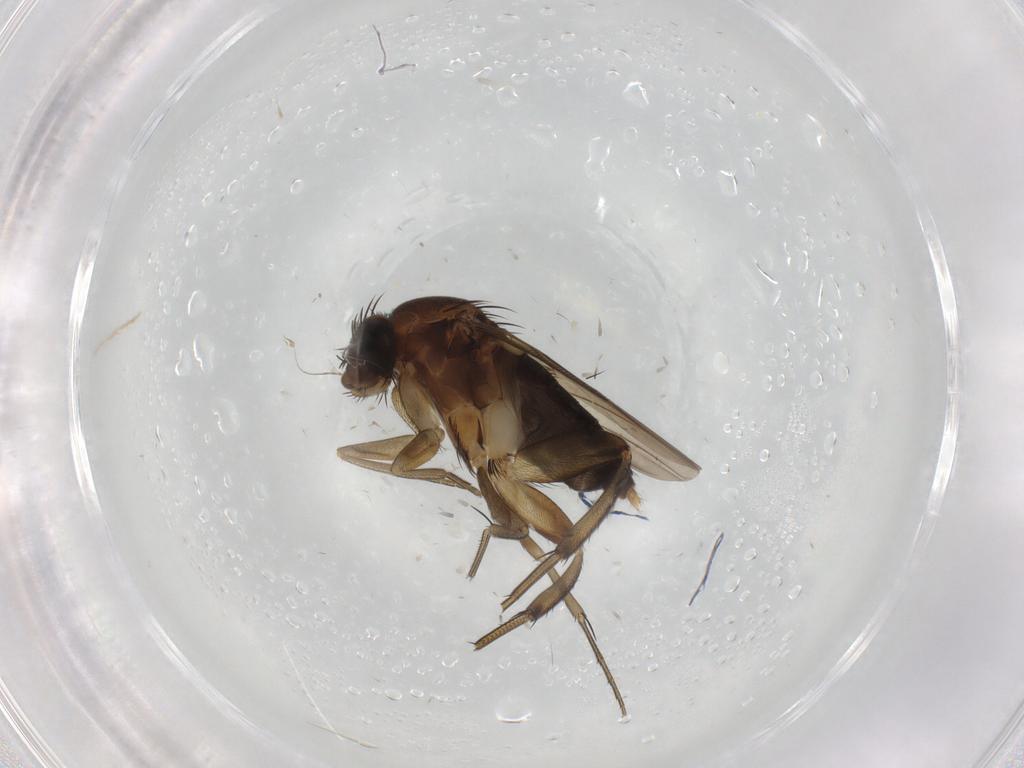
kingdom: Animalia
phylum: Arthropoda
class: Insecta
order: Diptera
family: Phoridae
